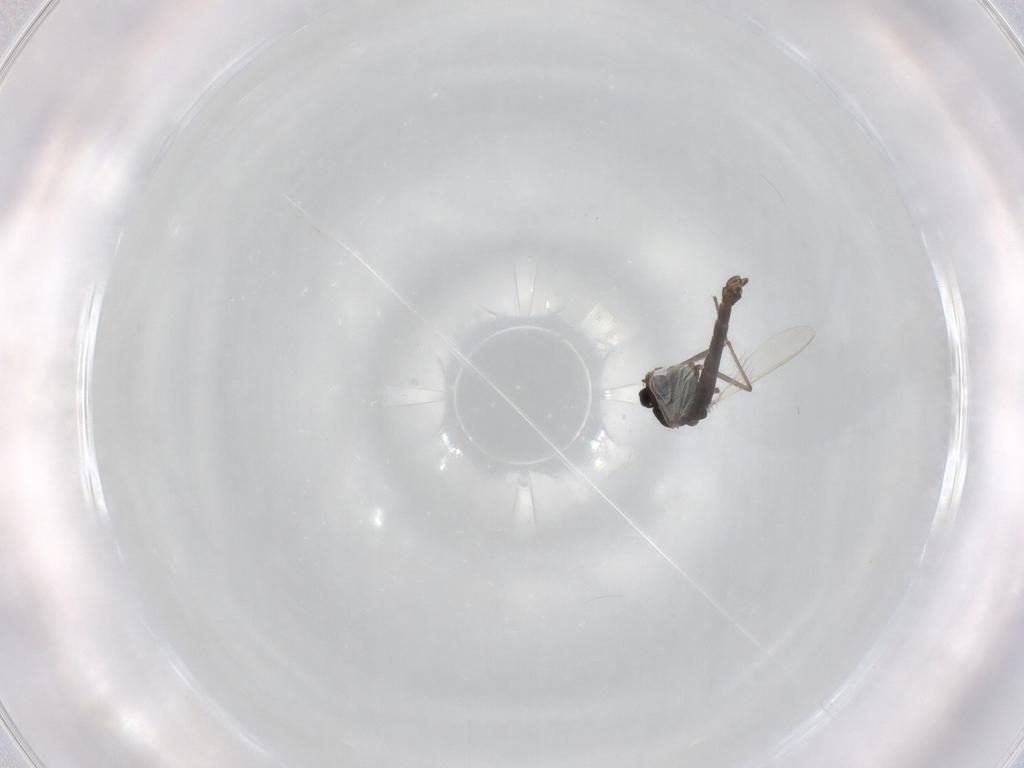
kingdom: Animalia
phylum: Arthropoda
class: Insecta
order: Diptera
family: Chironomidae
